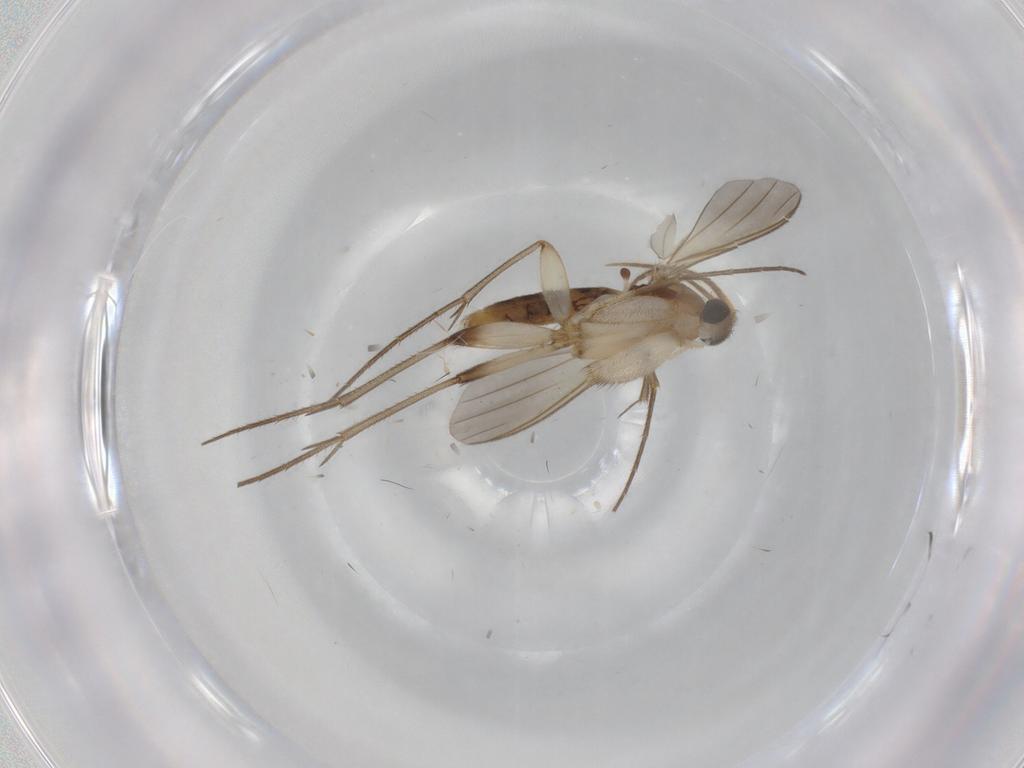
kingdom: Animalia
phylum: Arthropoda
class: Insecta
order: Diptera
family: Mycetophilidae
